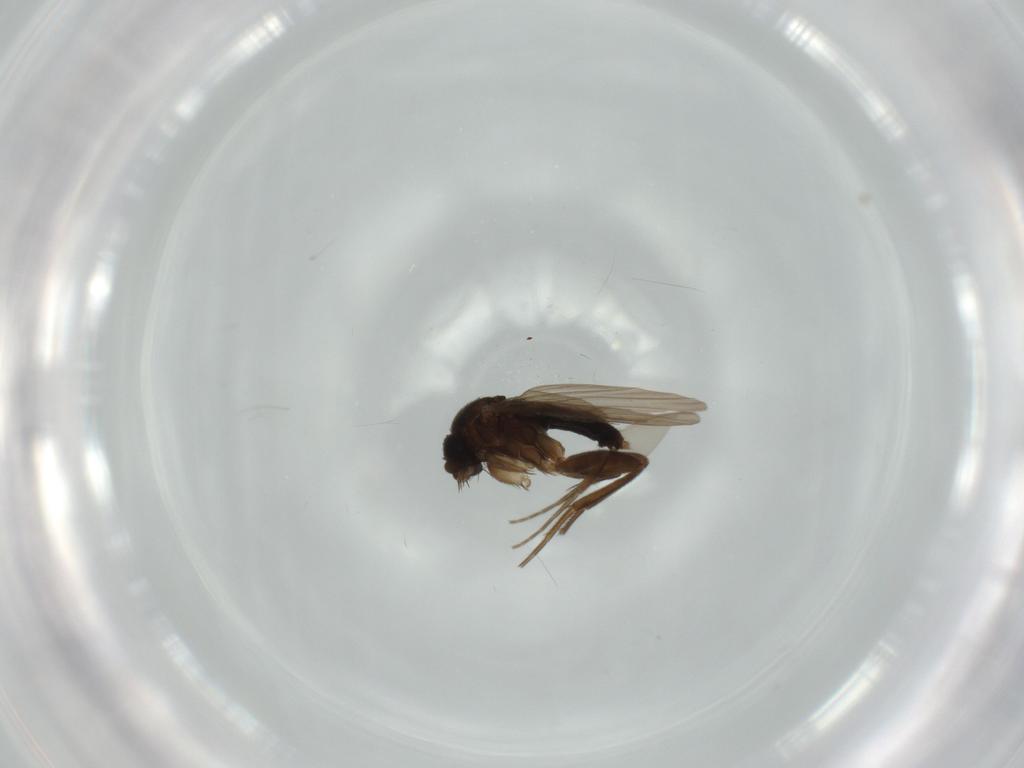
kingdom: Animalia
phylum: Arthropoda
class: Insecta
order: Diptera
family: Phoridae
